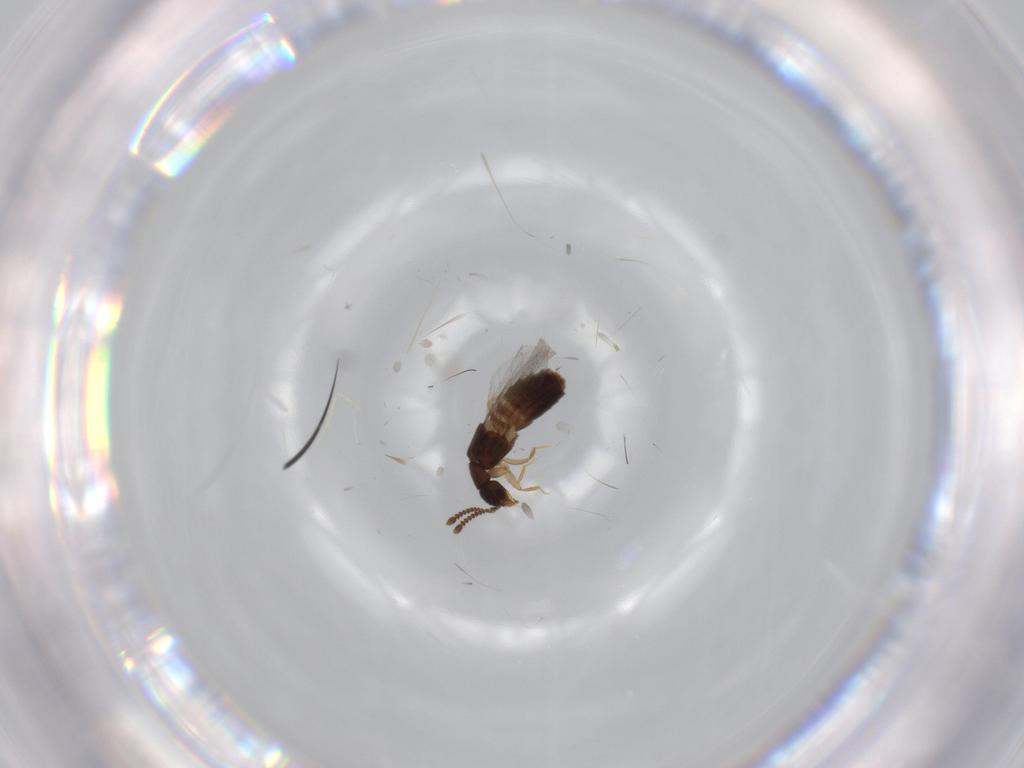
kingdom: Animalia
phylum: Arthropoda
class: Insecta
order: Coleoptera
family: Staphylinidae
